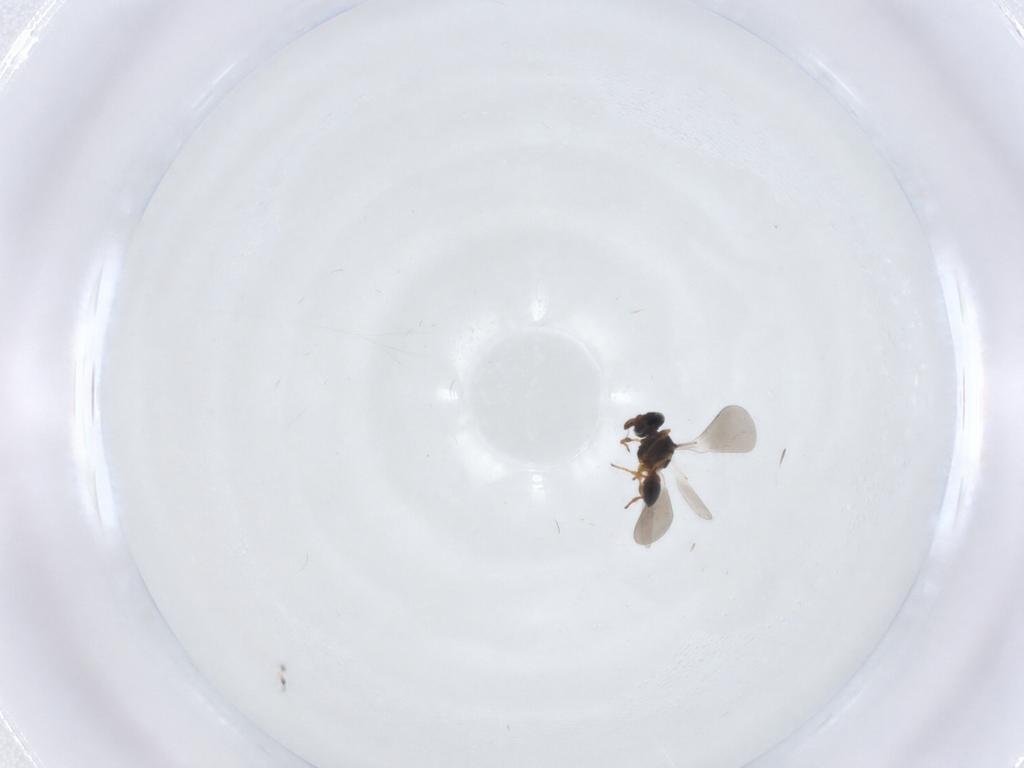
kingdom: Animalia
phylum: Arthropoda
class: Insecta
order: Hymenoptera
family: Platygastridae
